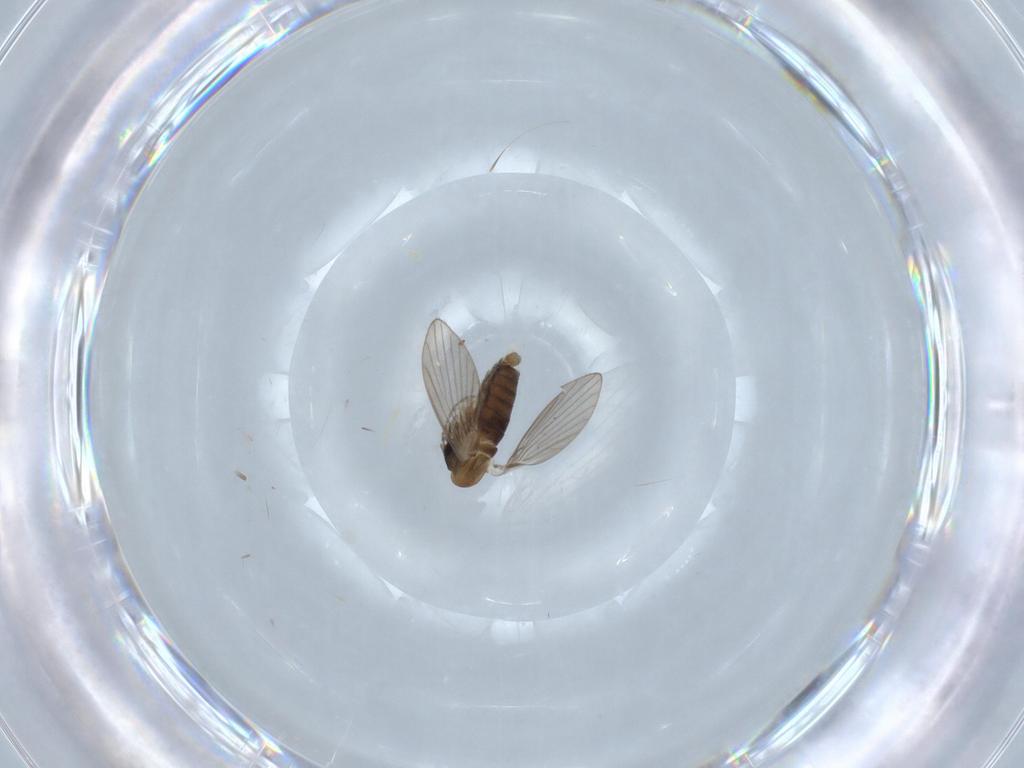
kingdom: Animalia
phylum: Arthropoda
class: Insecta
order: Diptera
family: Psychodidae
